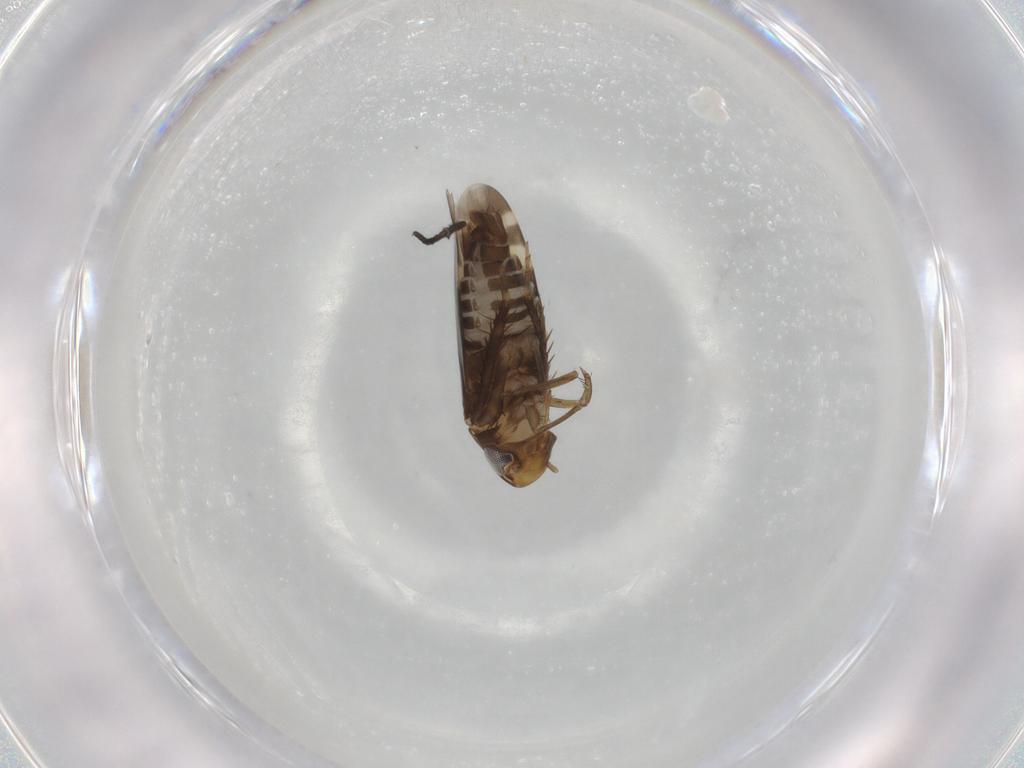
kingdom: Animalia
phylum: Arthropoda
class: Insecta
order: Hemiptera
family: Cicadellidae
